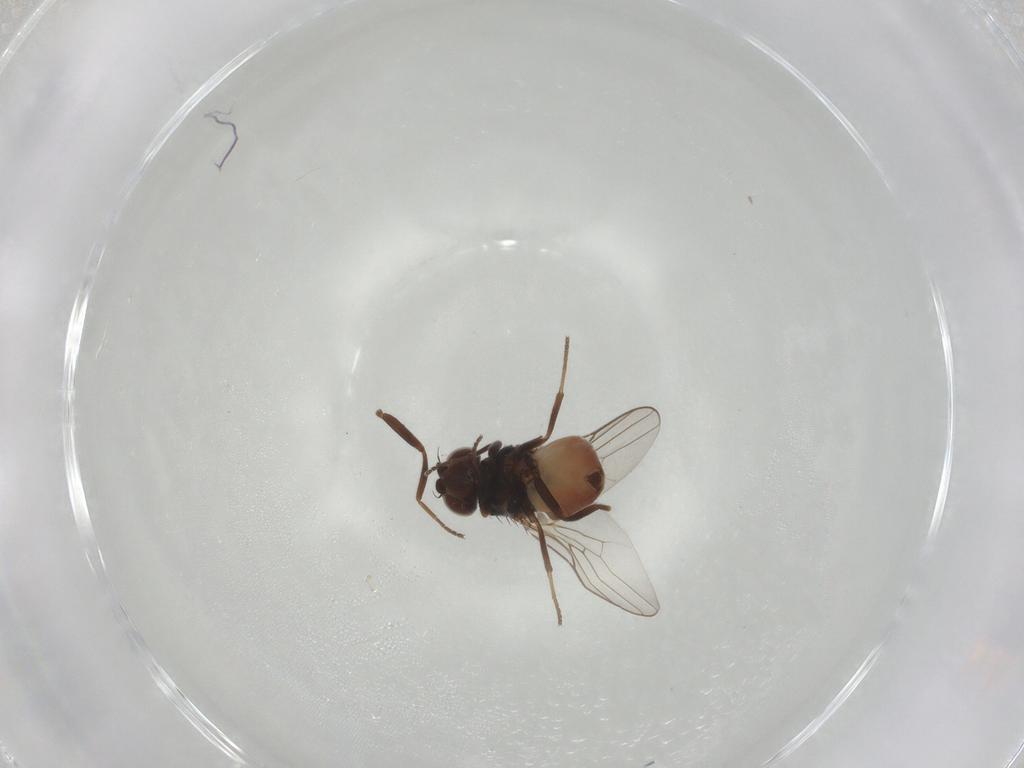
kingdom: Animalia
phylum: Arthropoda
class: Insecta
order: Diptera
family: Chloropidae
